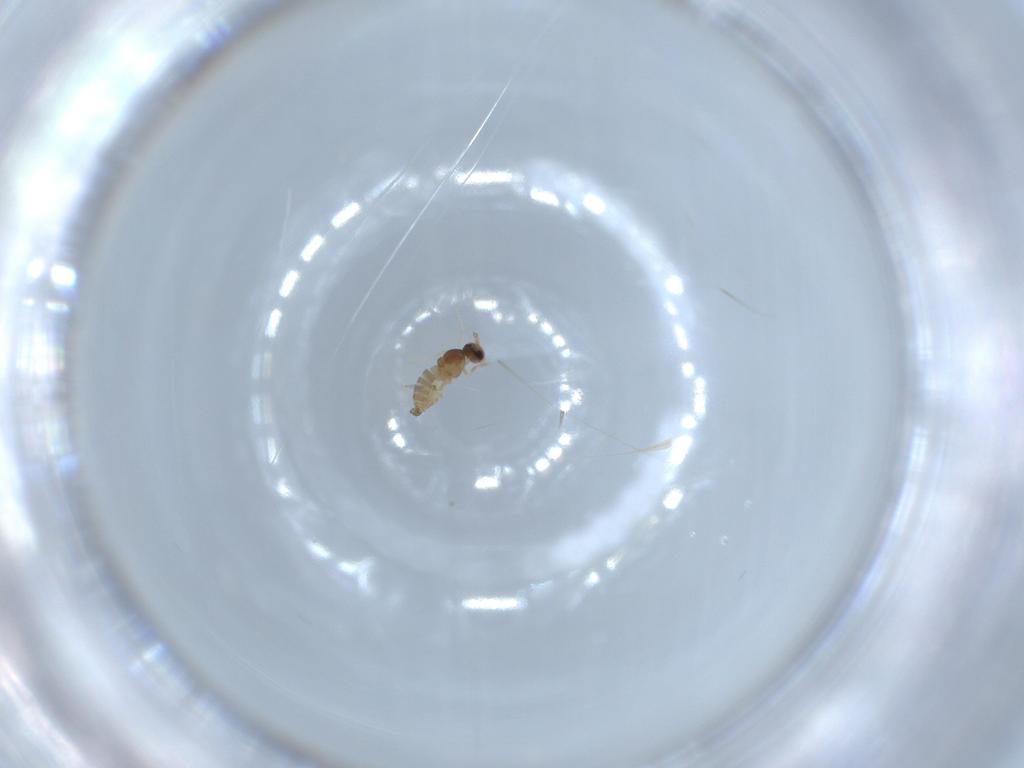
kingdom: Animalia
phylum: Arthropoda
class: Insecta
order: Diptera
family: Cecidomyiidae
